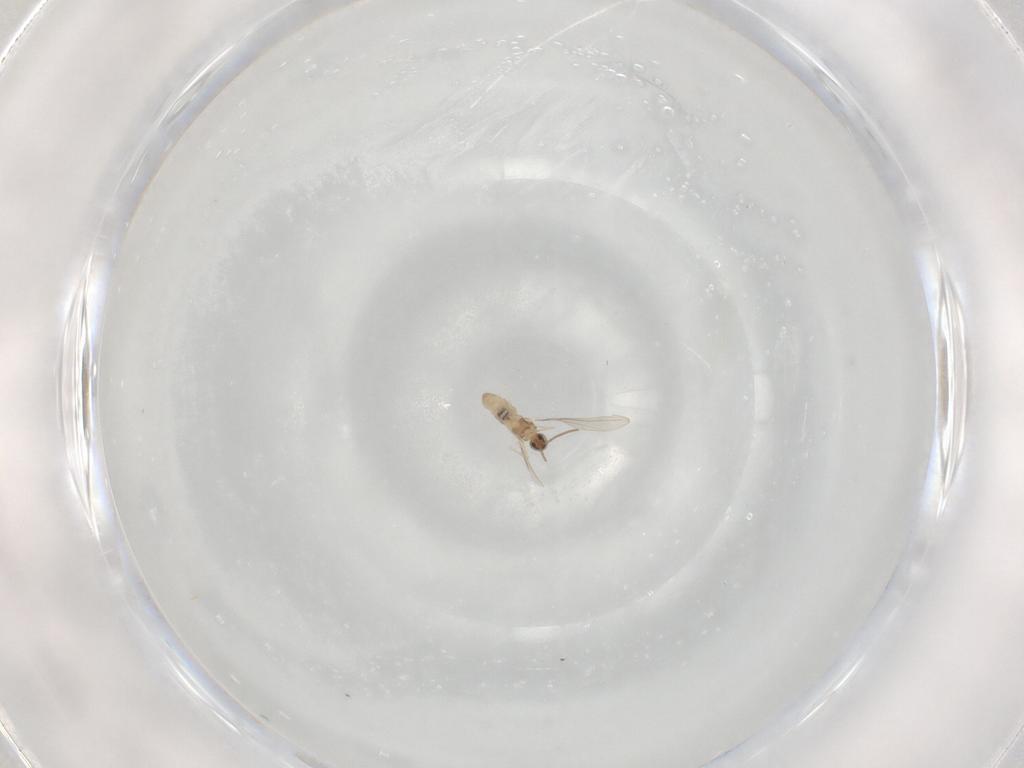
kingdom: Animalia
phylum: Arthropoda
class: Insecta
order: Diptera
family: Cecidomyiidae
